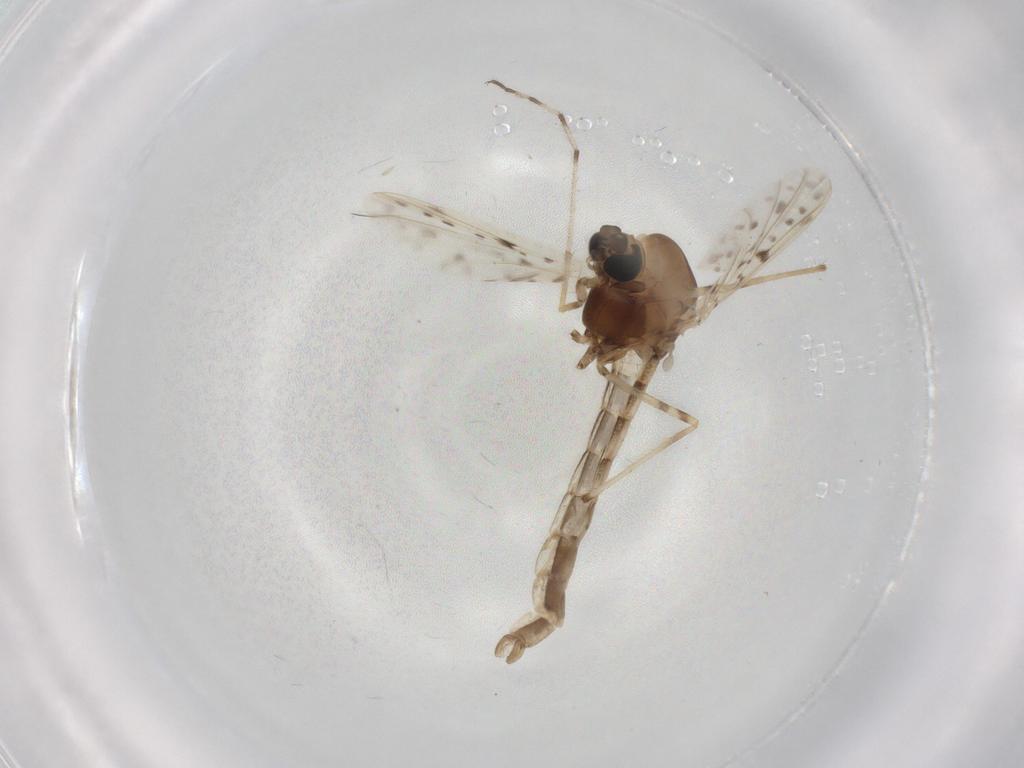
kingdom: Animalia
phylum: Arthropoda
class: Insecta
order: Diptera
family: Chironomidae
